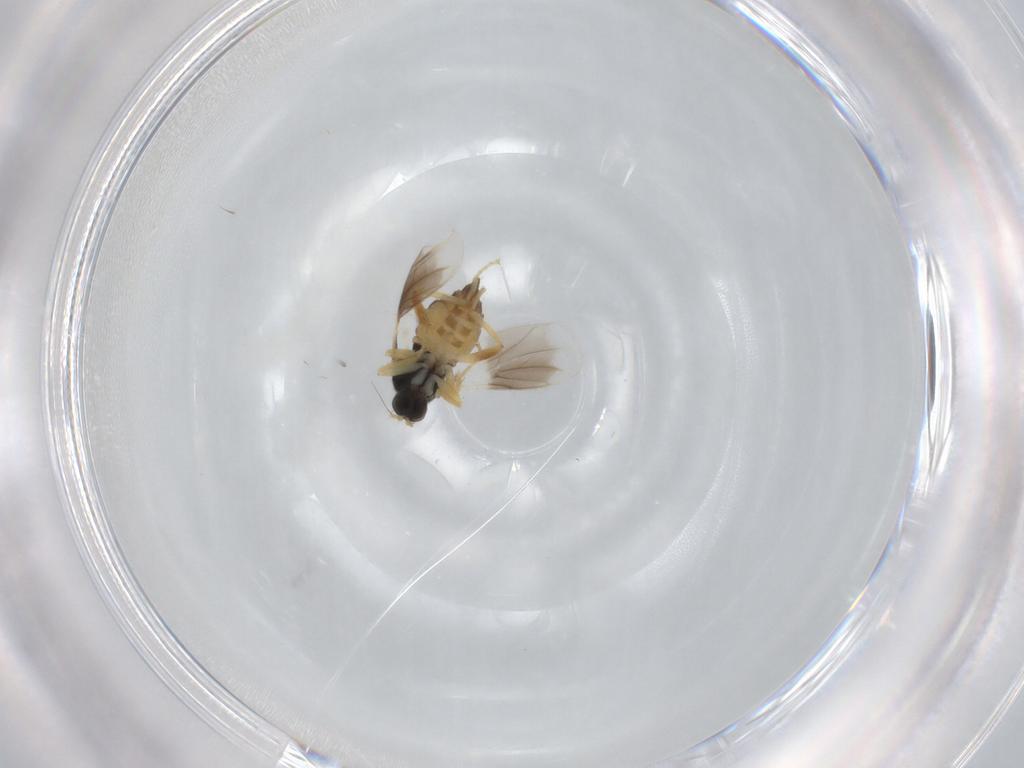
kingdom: Animalia
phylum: Arthropoda
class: Insecta
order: Diptera
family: Hybotidae
